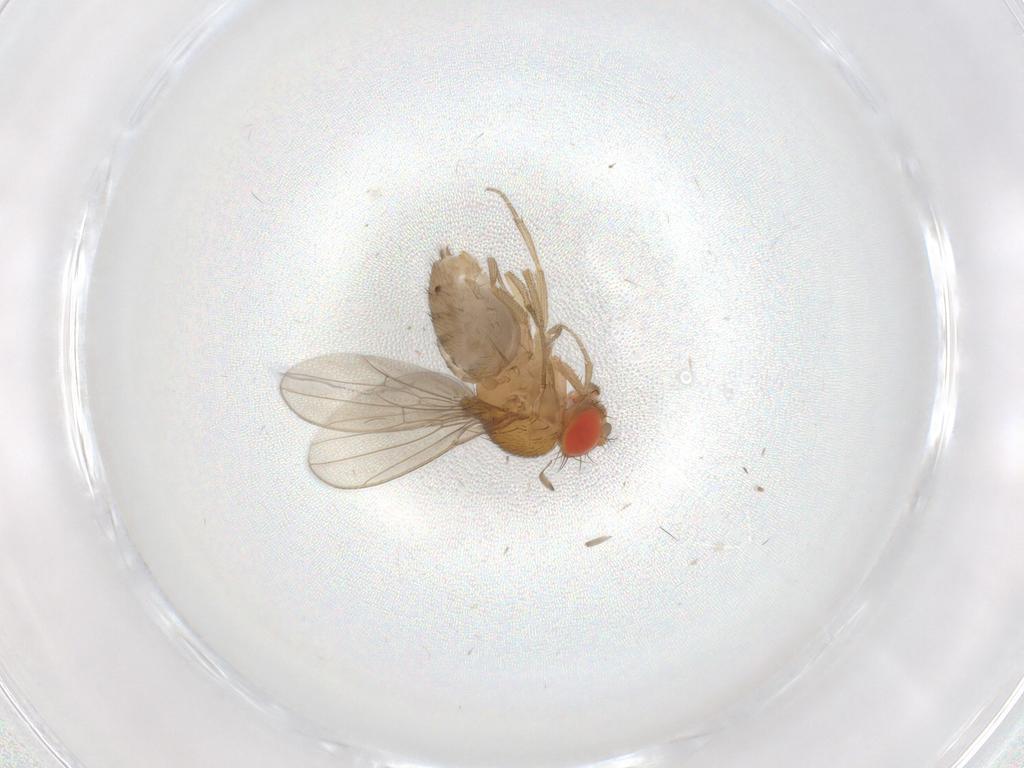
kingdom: Animalia
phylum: Arthropoda
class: Insecta
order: Diptera
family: Drosophilidae
